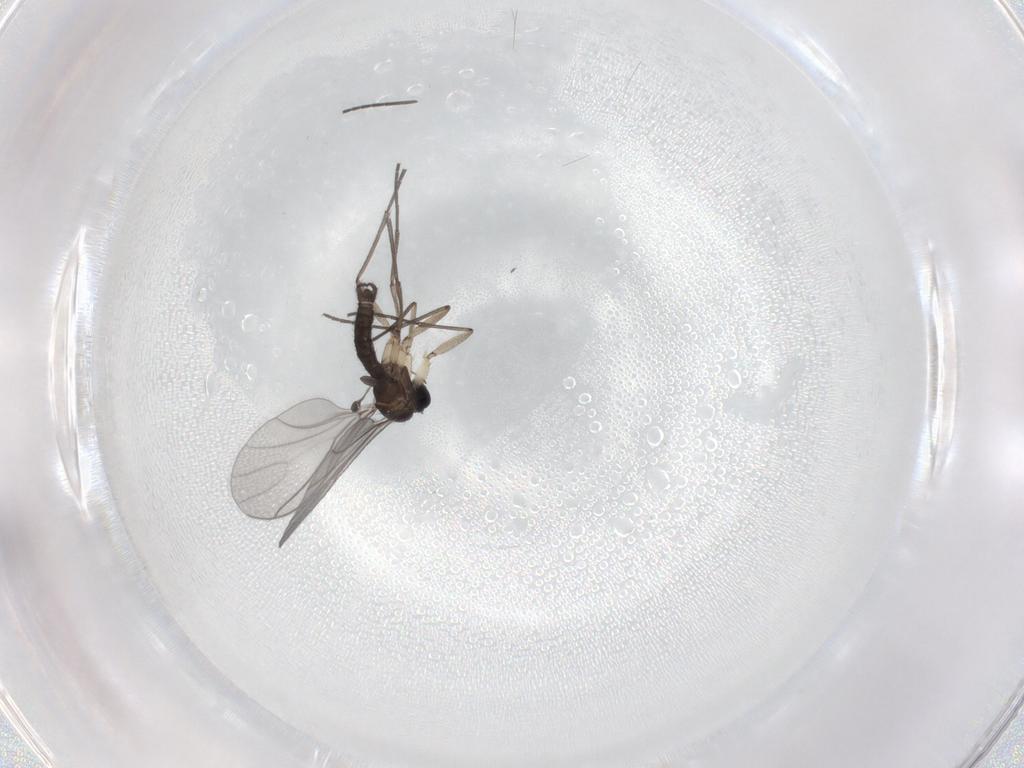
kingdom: Animalia
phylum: Arthropoda
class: Insecta
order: Diptera
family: Sciaridae
